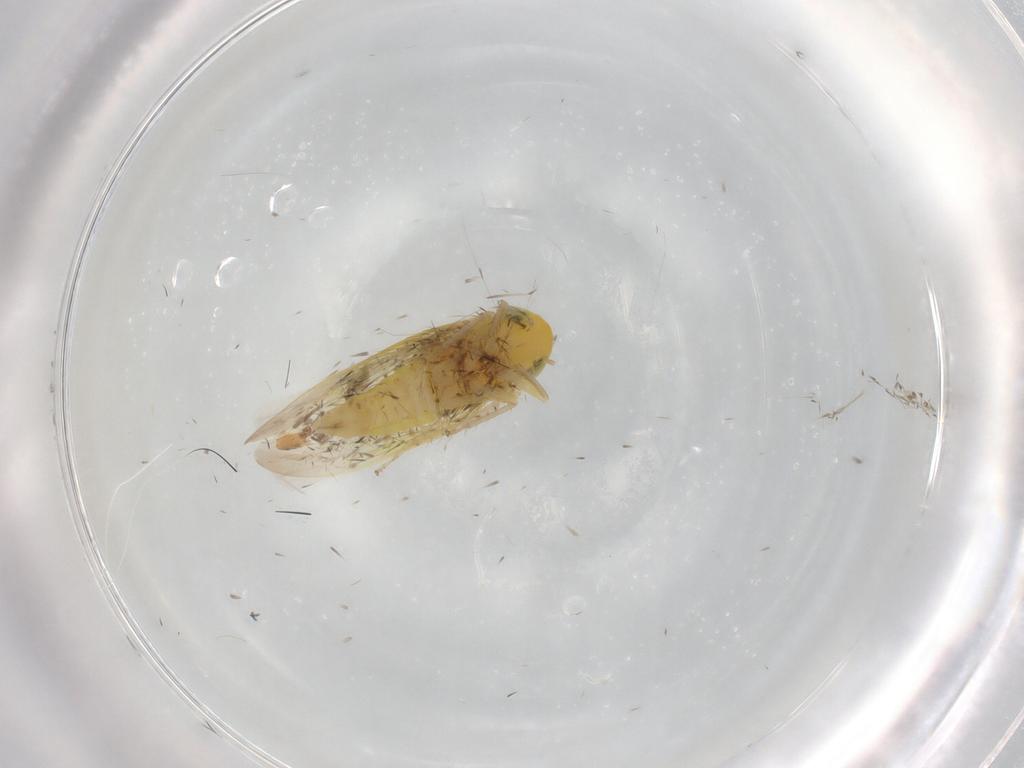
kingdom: Animalia
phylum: Arthropoda
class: Insecta
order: Hemiptera
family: Cicadellidae
